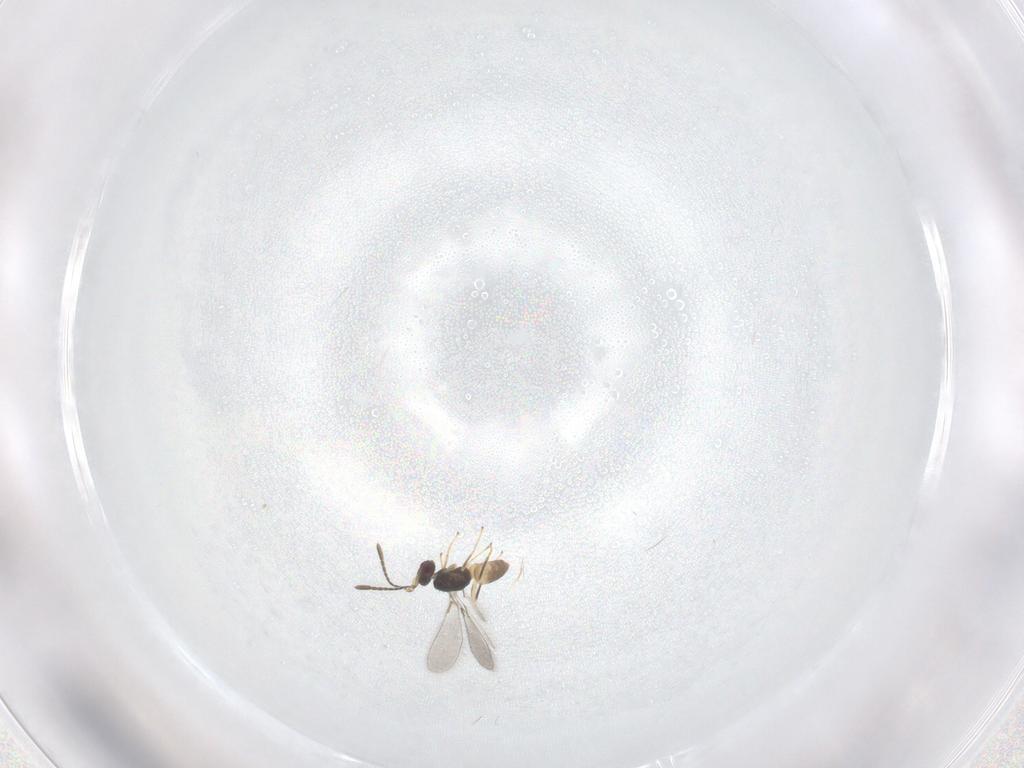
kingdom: Animalia
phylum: Arthropoda
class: Insecta
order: Hymenoptera
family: Mymaridae
